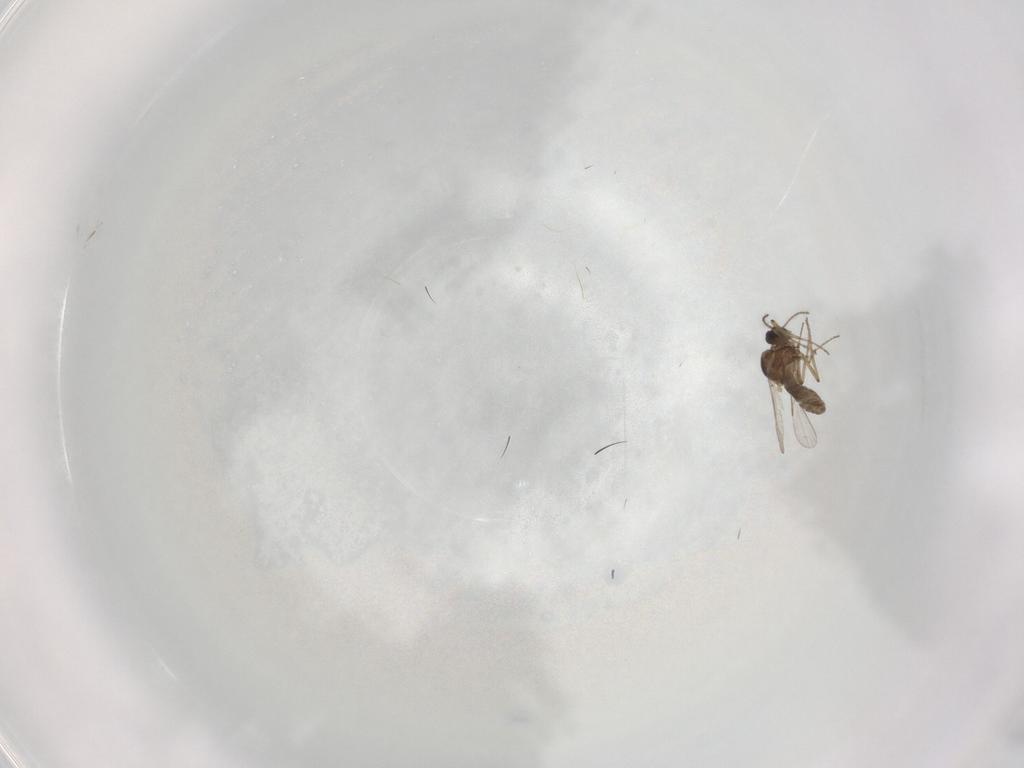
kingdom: Animalia
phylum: Arthropoda
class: Insecta
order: Diptera
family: Ceratopogonidae
